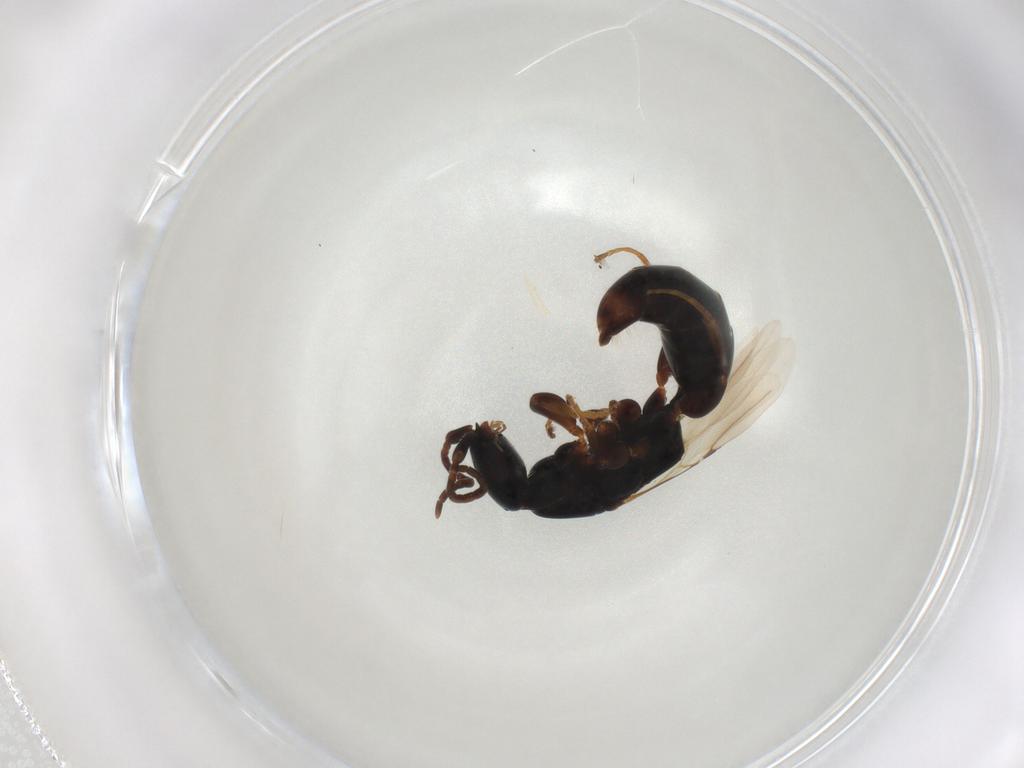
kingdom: Animalia
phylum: Arthropoda
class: Insecta
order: Hymenoptera
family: Bethylidae
